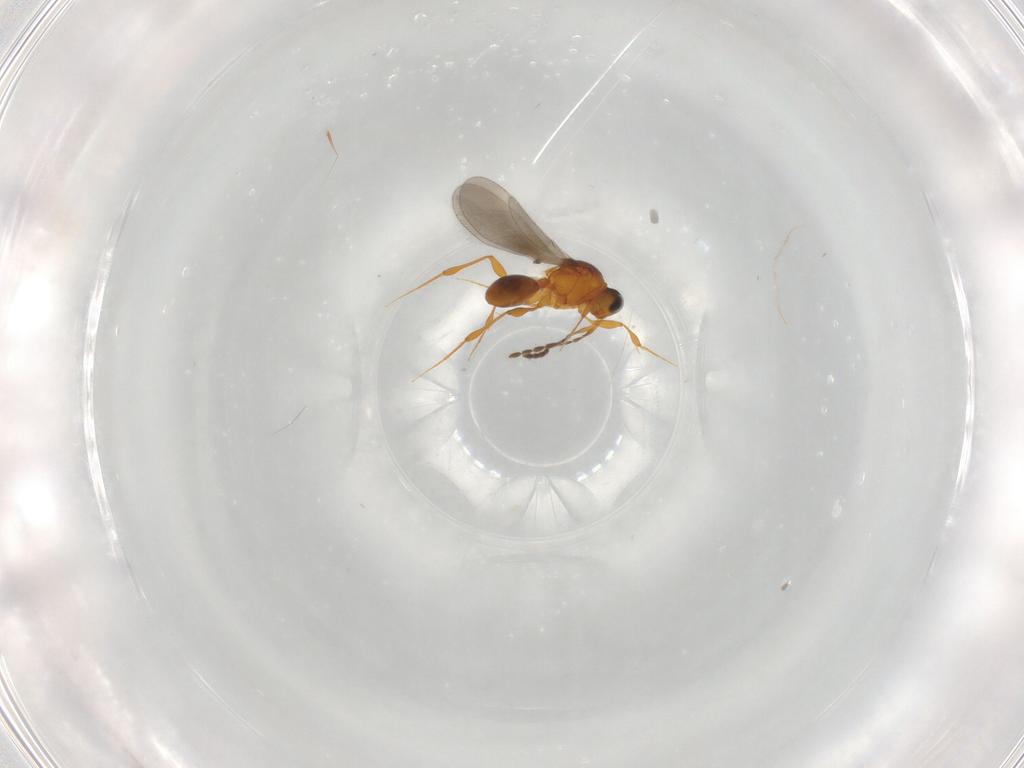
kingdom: Animalia
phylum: Arthropoda
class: Insecta
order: Hymenoptera
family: Platygastridae
